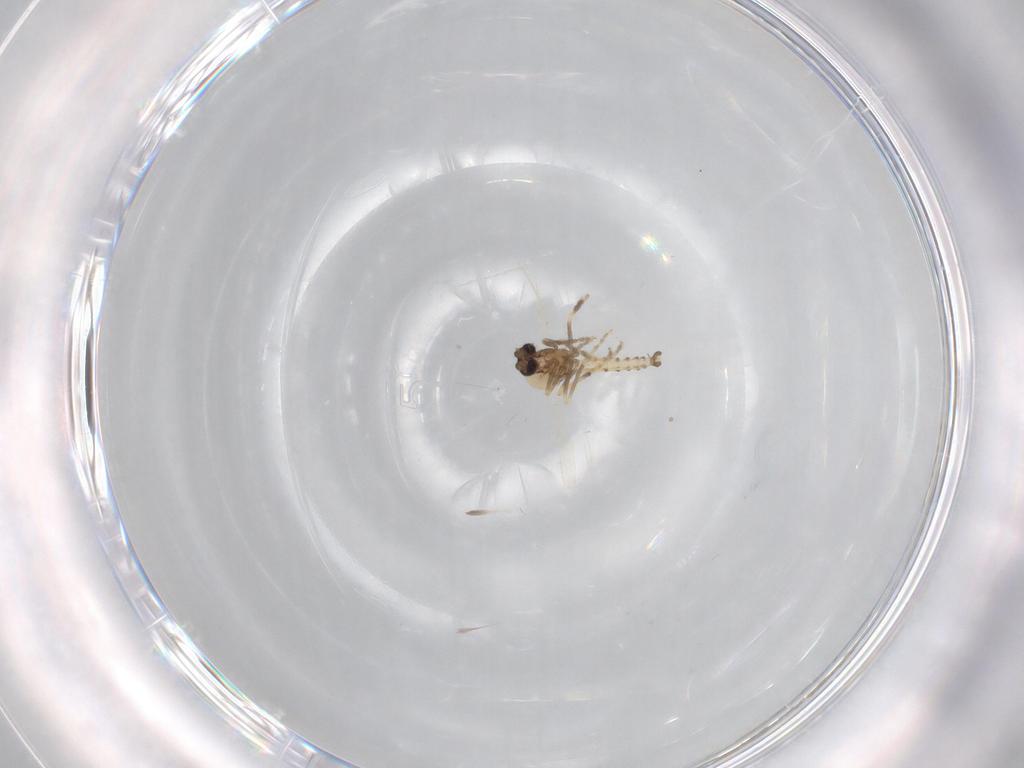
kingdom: Animalia
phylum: Arthropoda
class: Insecta
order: Diptera
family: Ceratopogonidae
